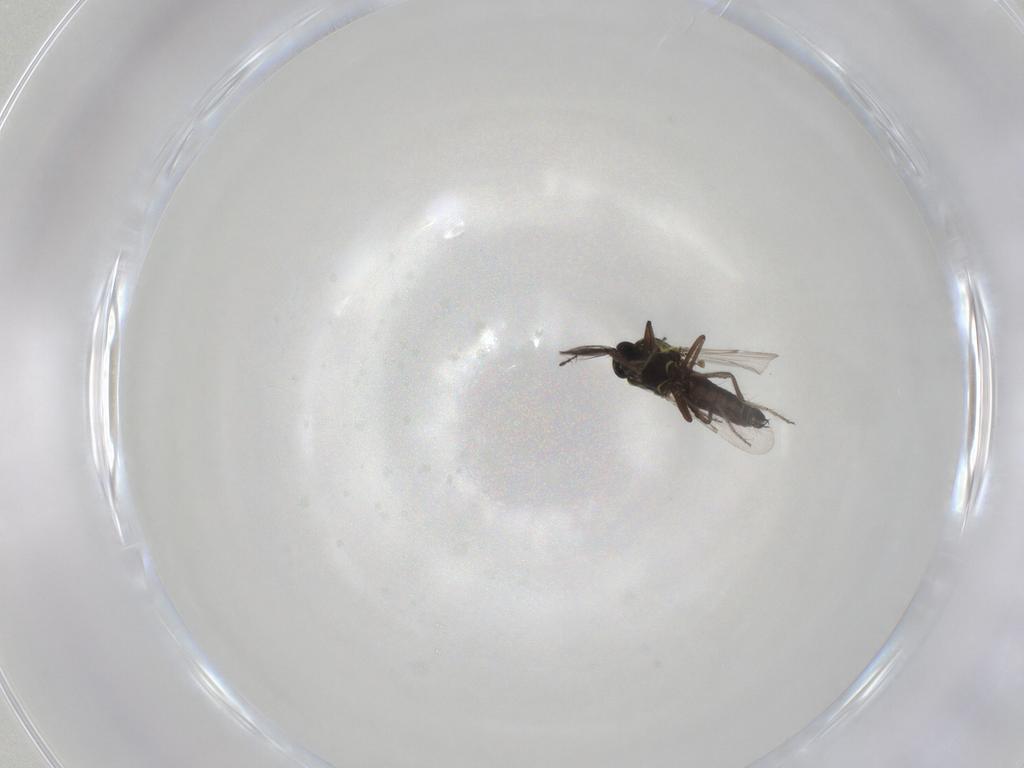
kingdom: Animalia
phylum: Arthropoda
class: Insecta
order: Diptera
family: Ceratopogonidae
